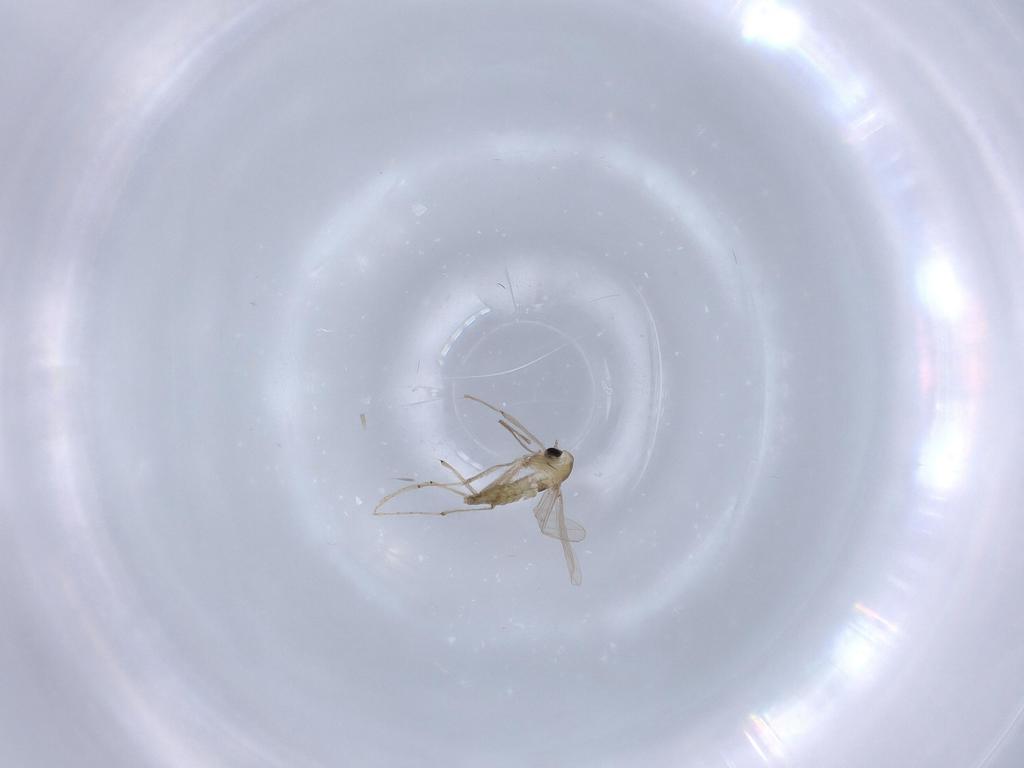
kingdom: Animalia
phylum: Arthropoda
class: Insecta
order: Diptera
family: Chironomidae
